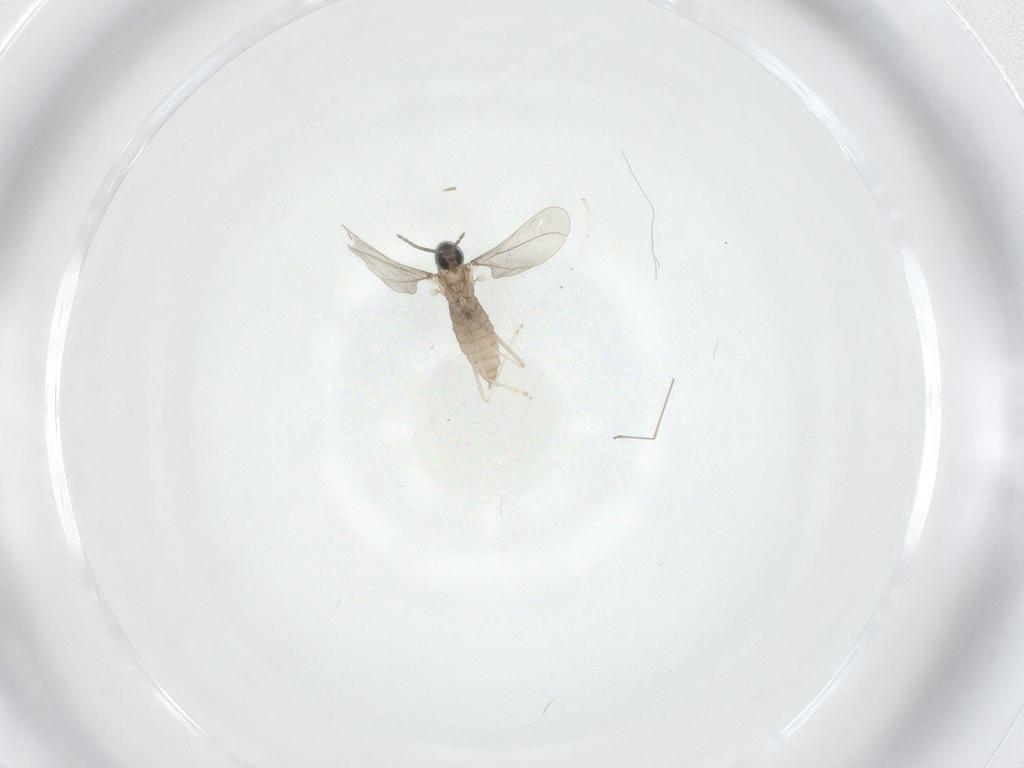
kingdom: Animalia
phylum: Arthropoda
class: Insecta
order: Diptera
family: Cecidomyiidae
